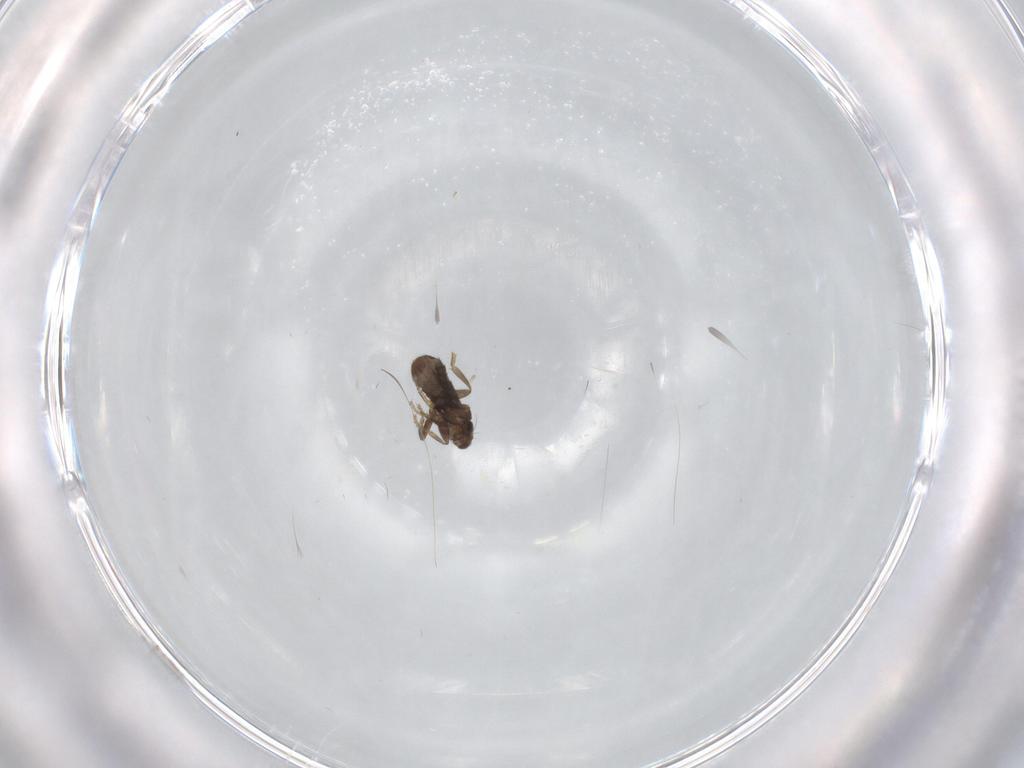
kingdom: Animalia
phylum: Arthropoda
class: Insecta
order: Diptera
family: Phoridae
